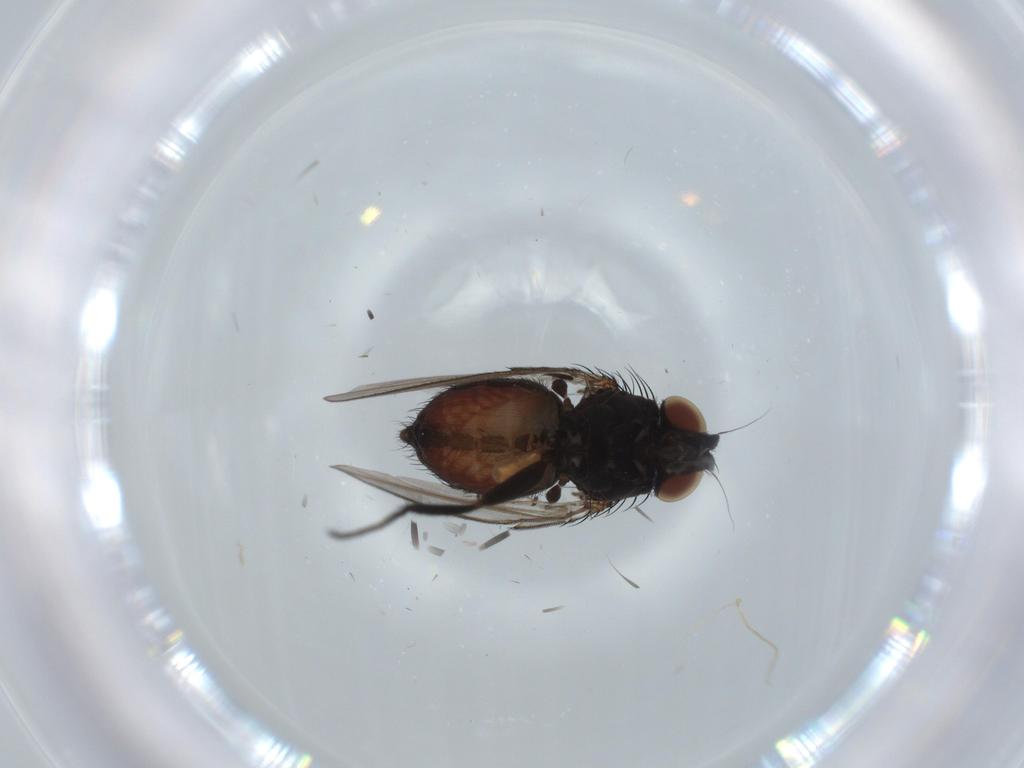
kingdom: Animalia
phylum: Arthropoda
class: Insecta
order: Diptera
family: Milichiidae
